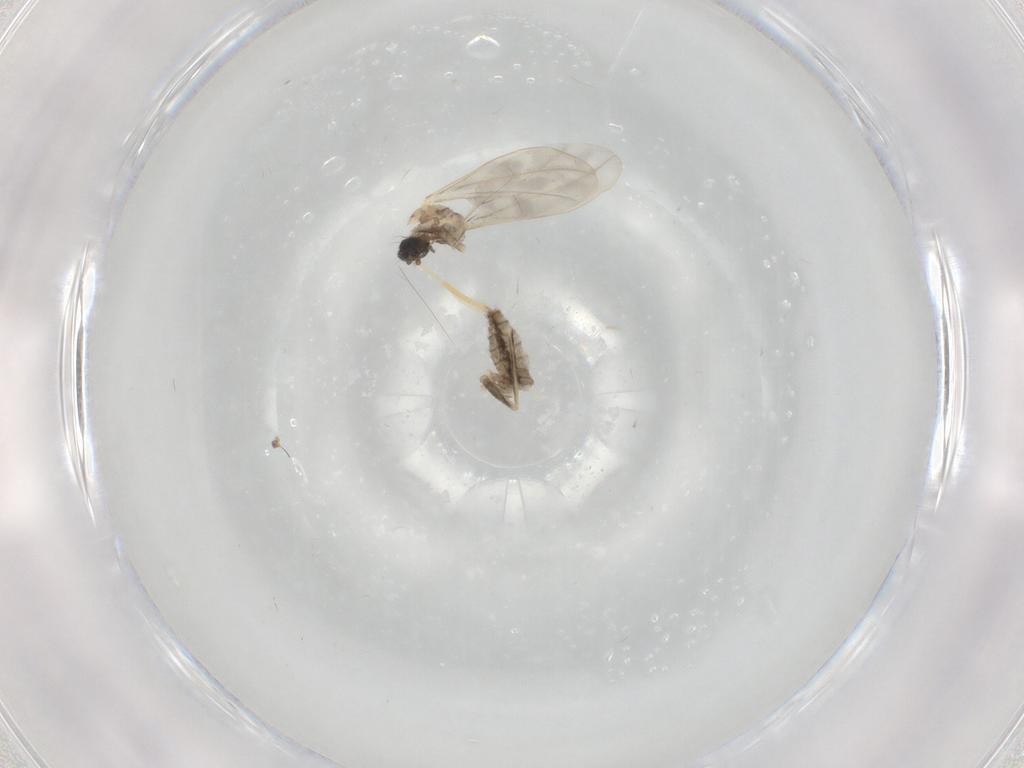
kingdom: Animalia
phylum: Arthropoda
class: Insecta
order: Diptera
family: Cecidomyiidae
